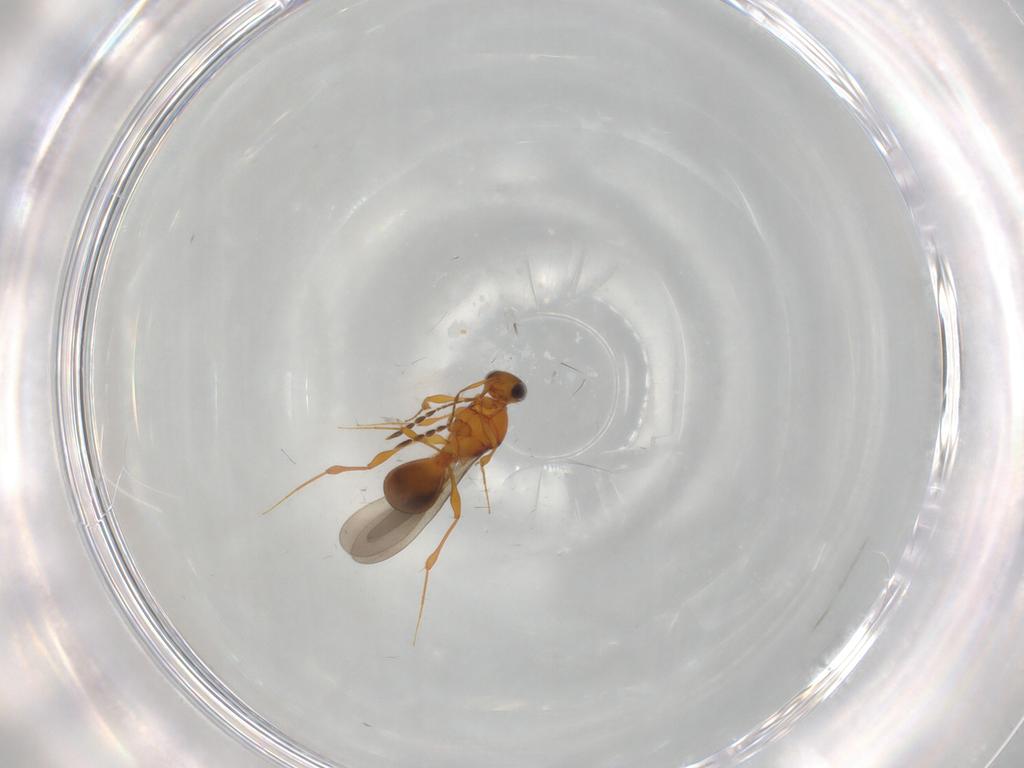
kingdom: Animalia
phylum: Arthropoda
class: Insecta
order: Hymenoptera
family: Platygastridae
